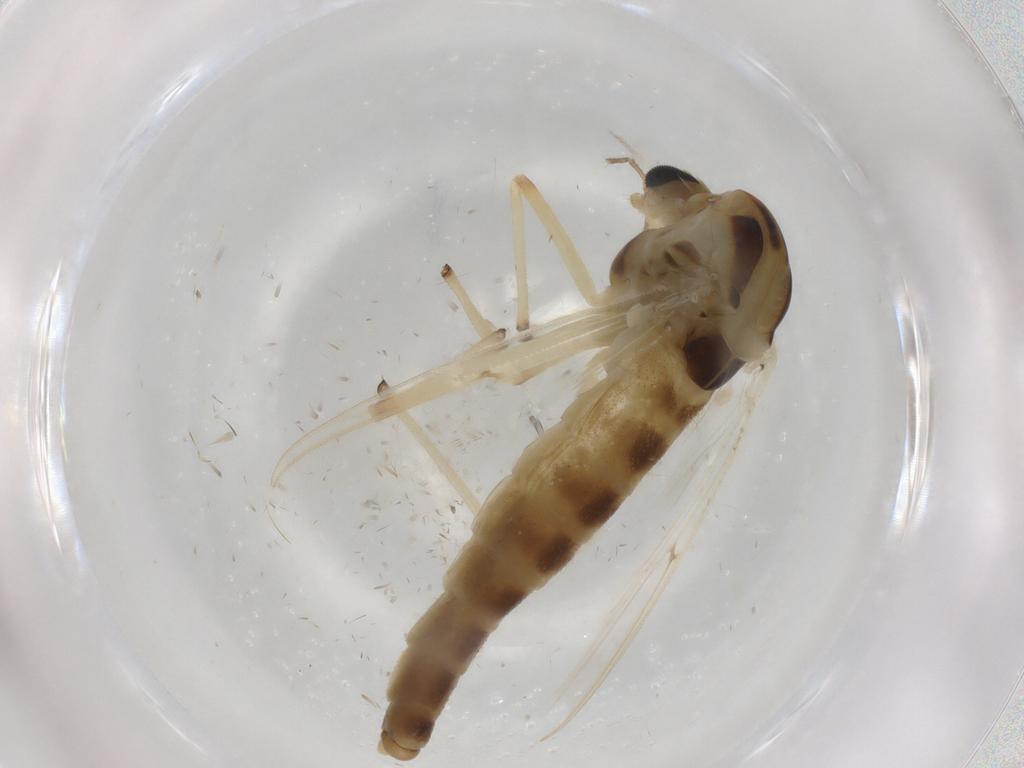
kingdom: Animalia
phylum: Arthropoda
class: Insecta
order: Diptera
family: Chironomidae
